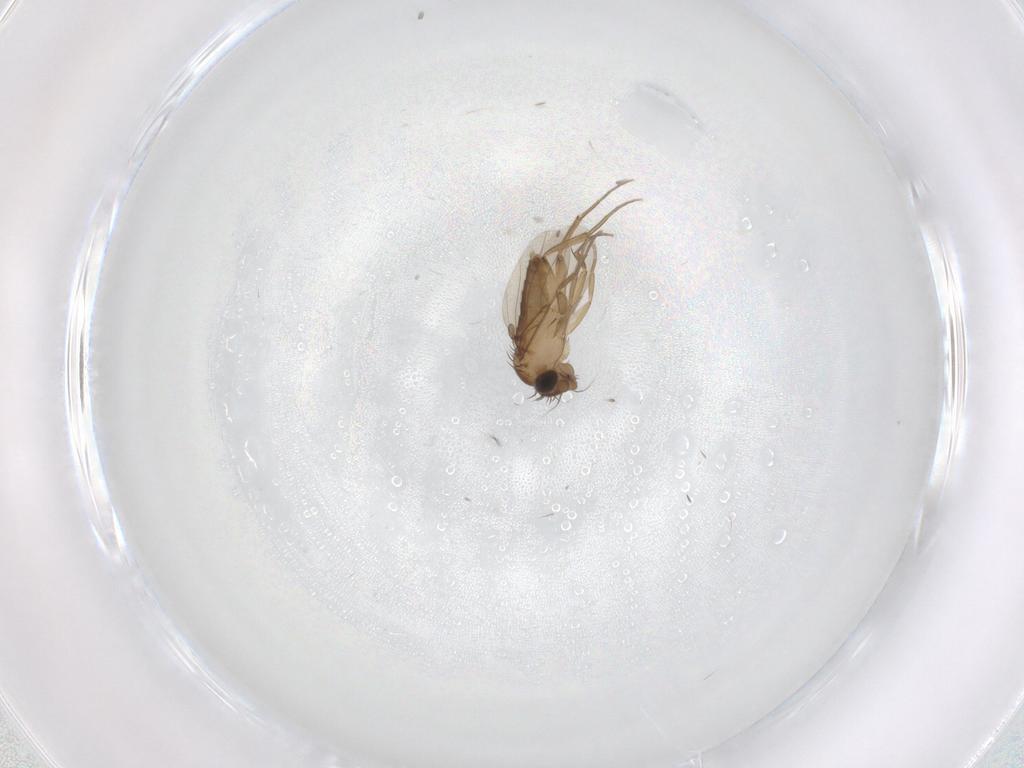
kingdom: Animalia
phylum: Arthropoda
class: Insecta
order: Diptera
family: Phoridae
